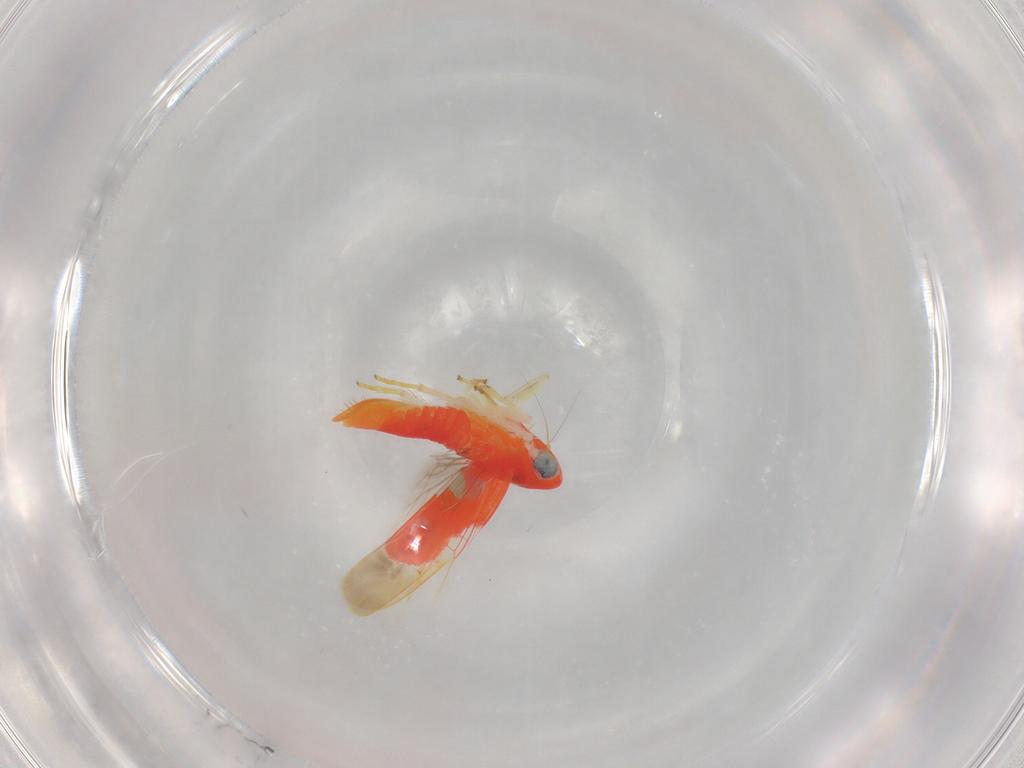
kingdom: Animalia
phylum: Arthropoda
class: Insecta
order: Hemiptera
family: Cicadellidae
